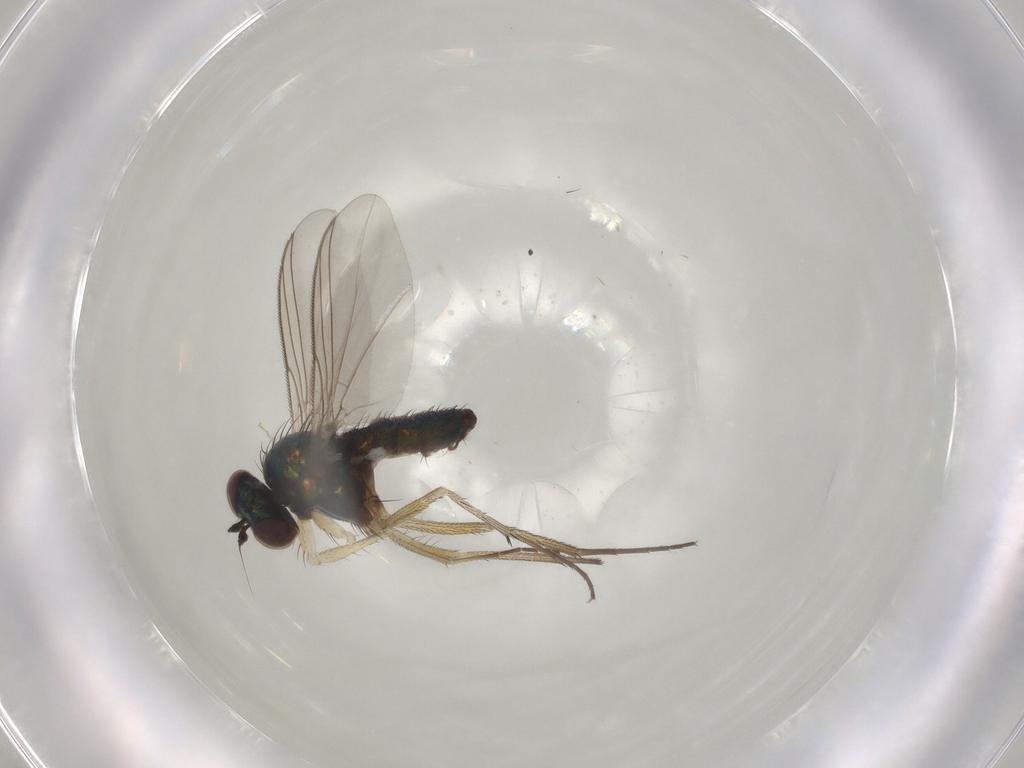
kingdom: Animalia
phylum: Arthropoda
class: Insecta
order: Diptera
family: Dolichopodidae
